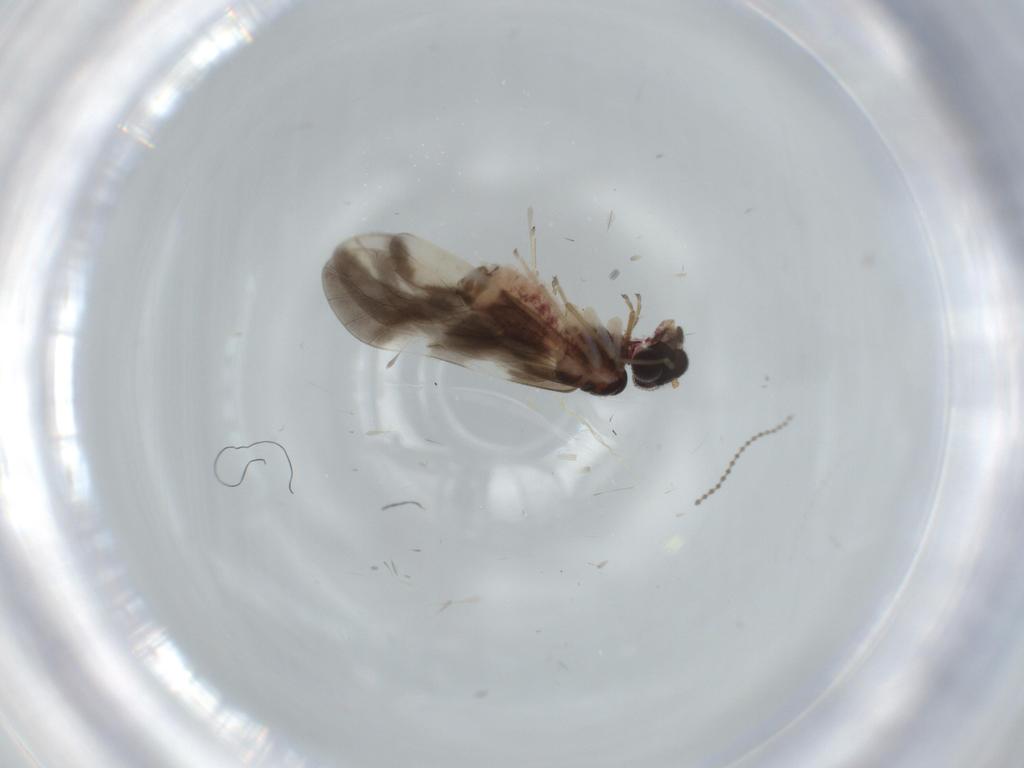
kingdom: Animalia
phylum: Arthropoda
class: Insecta
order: Psocodea
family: Caeciliusidae
